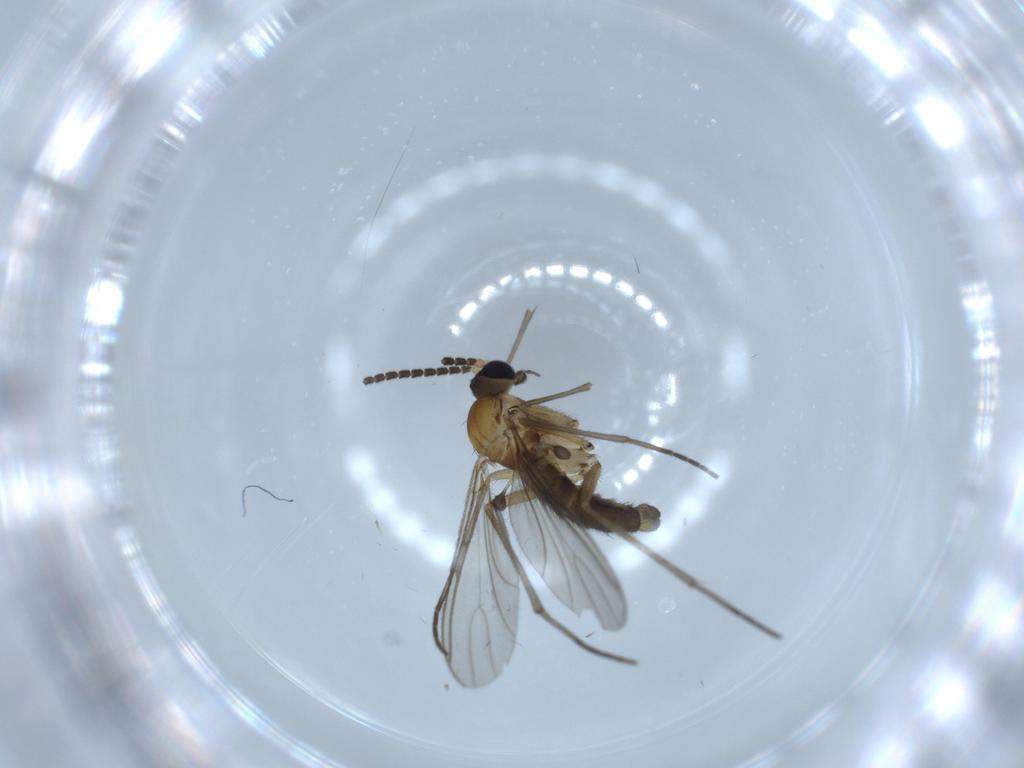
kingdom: Animalia
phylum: Arthropoda
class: Insecta
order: Diptera
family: Sciaridae
